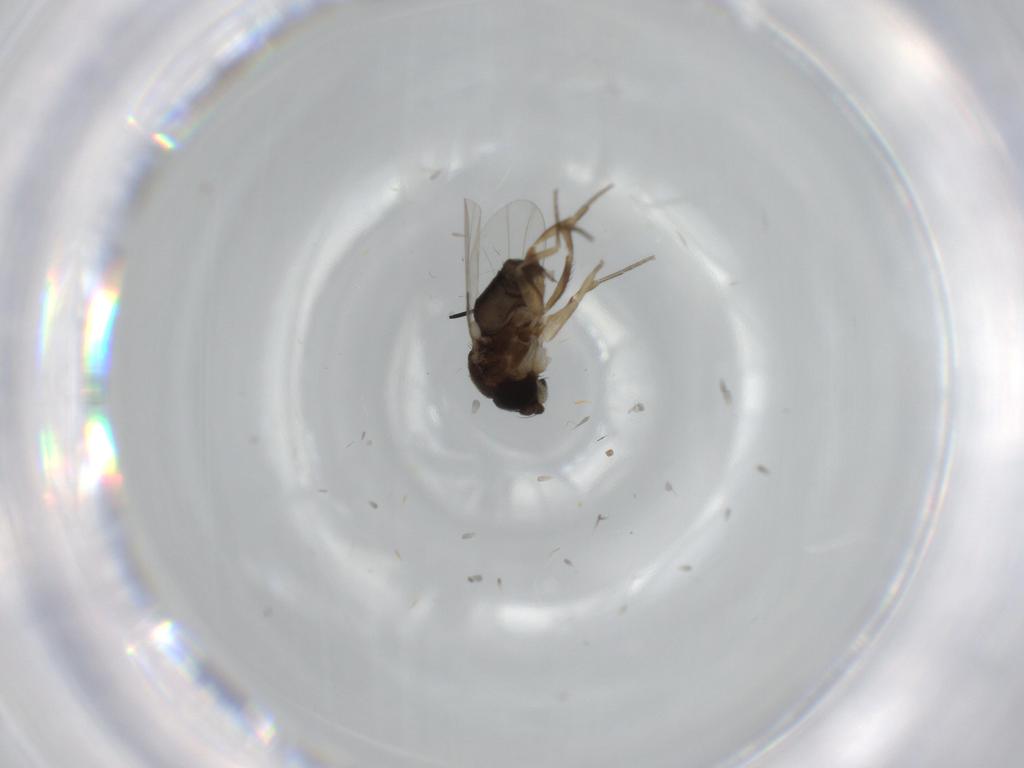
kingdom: Animalia
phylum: Arthropoda
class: Insecta
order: Diptera
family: Phoridae
